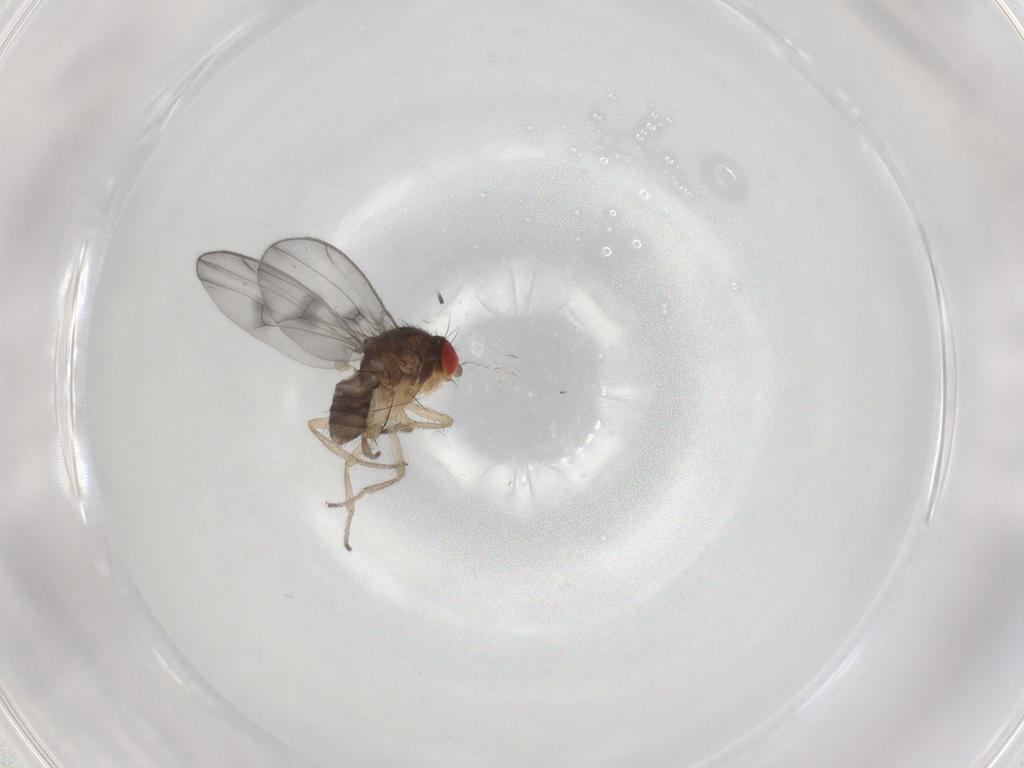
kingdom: Animalia
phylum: Arthropoda
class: Insecta
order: Diptera
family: Drosophilidae
